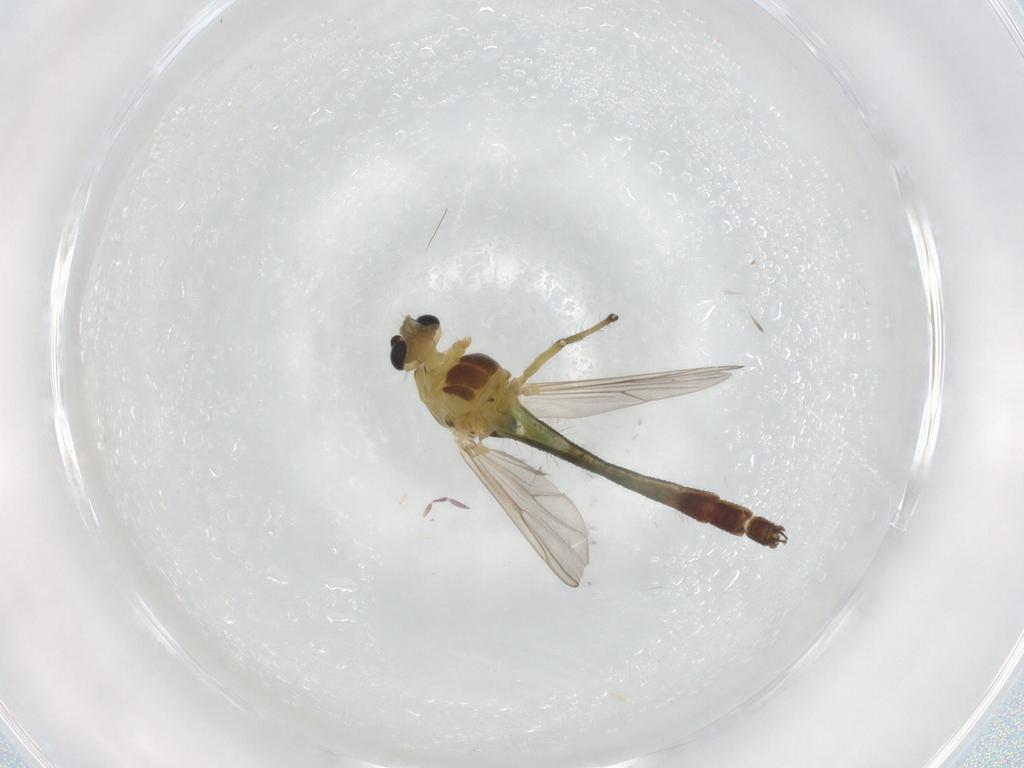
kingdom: Animalia
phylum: Arthropoda
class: Insecta
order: Diptera
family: Chironomidae
